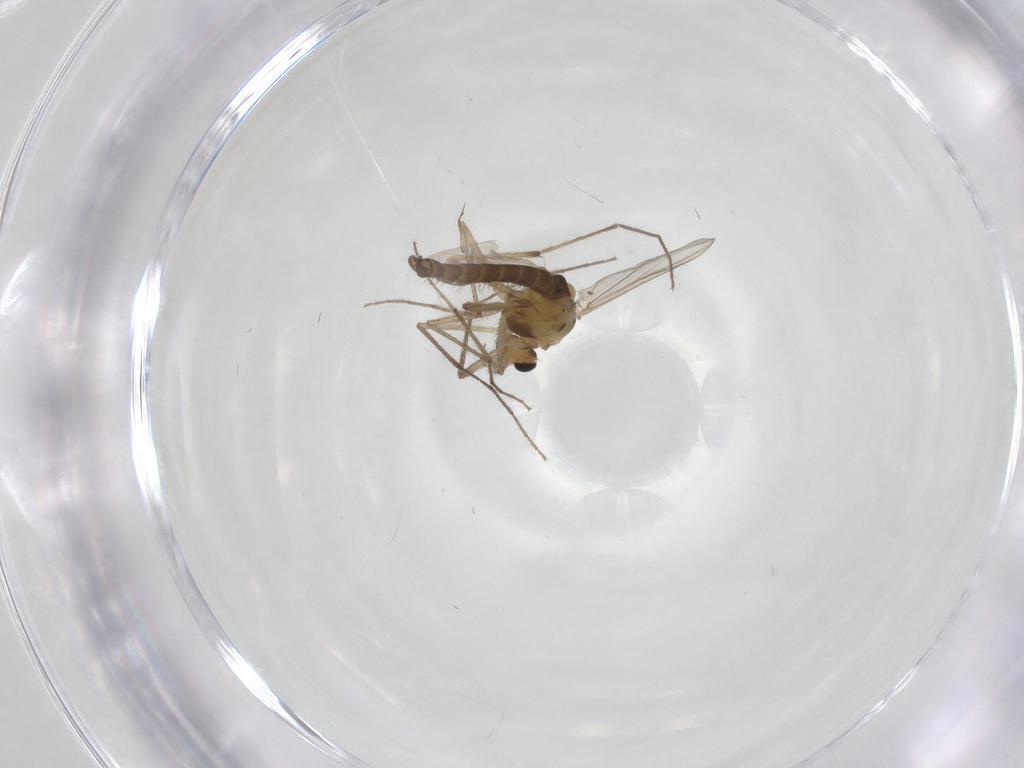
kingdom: Animalia
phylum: Arthropoda
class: Insecta
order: Diptera
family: Chironomidae
